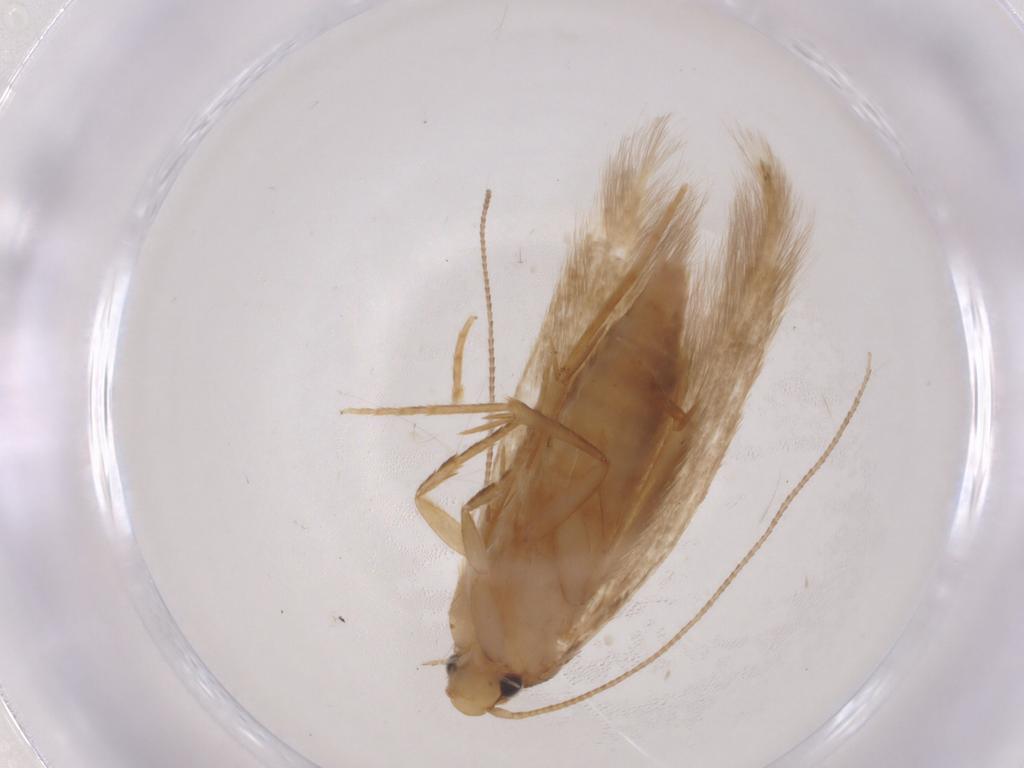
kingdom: Animalia
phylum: Arthropoda
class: Insecta
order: Lepidoptera
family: Tineidae
